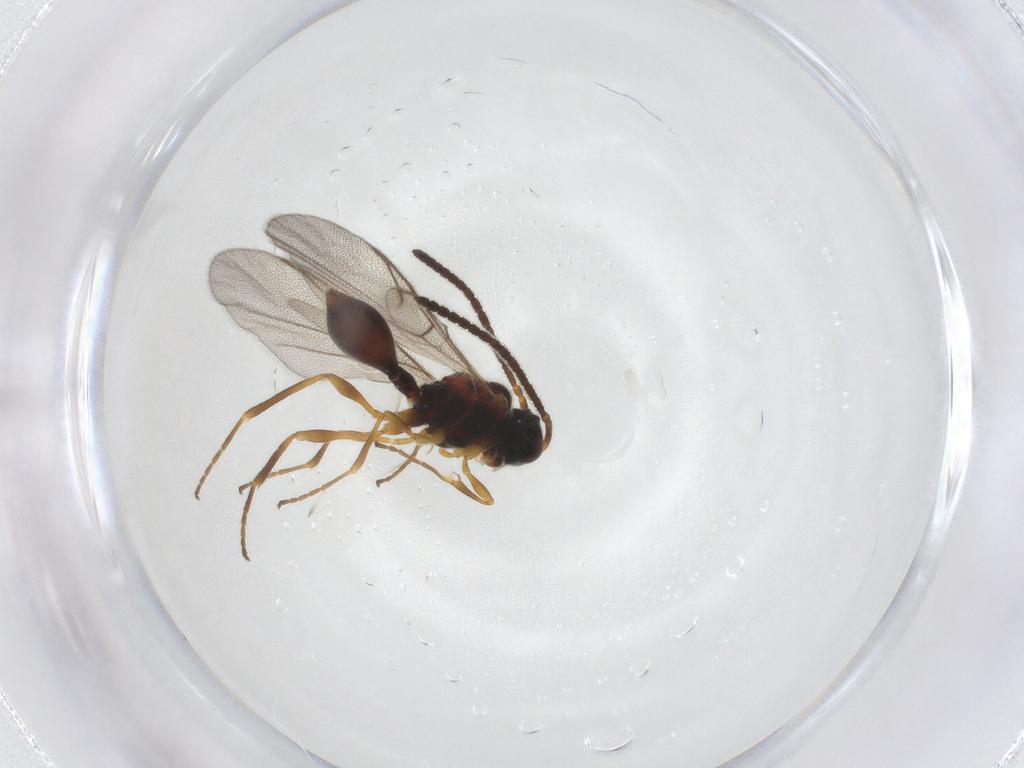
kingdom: Animalia
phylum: Arthropoda
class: Insecta
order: Hymenoptera
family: Diapriidae
